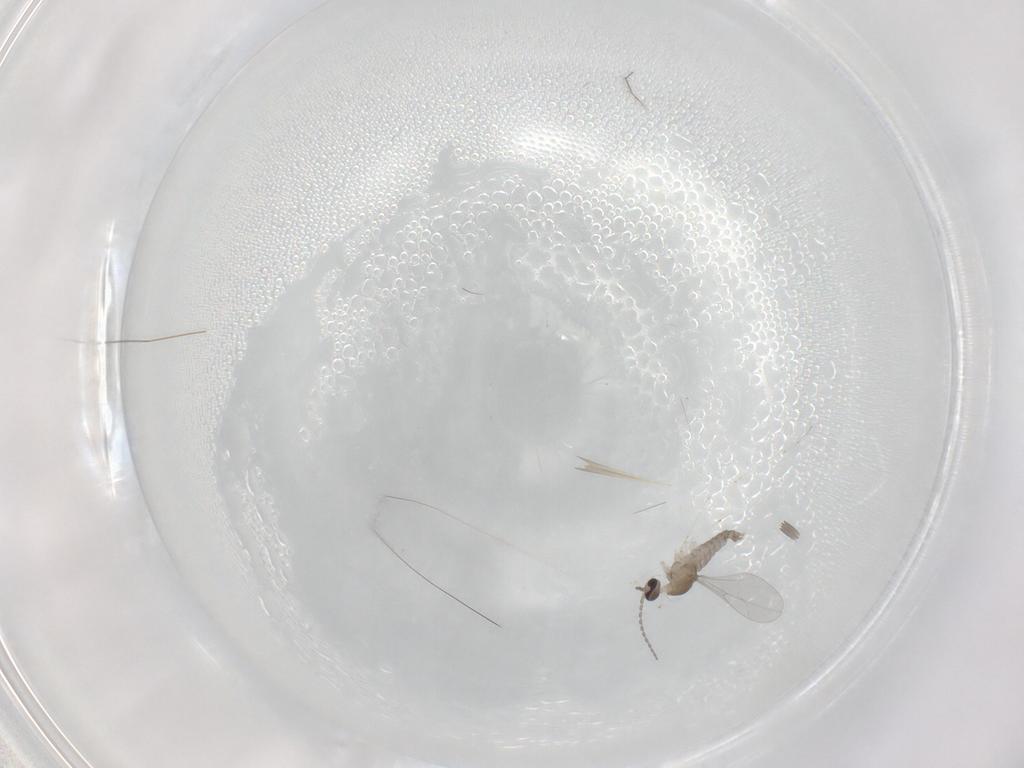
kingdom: Animalia
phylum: Arthropoda
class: Insecta
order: Diptera
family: Cecidomyiidae
